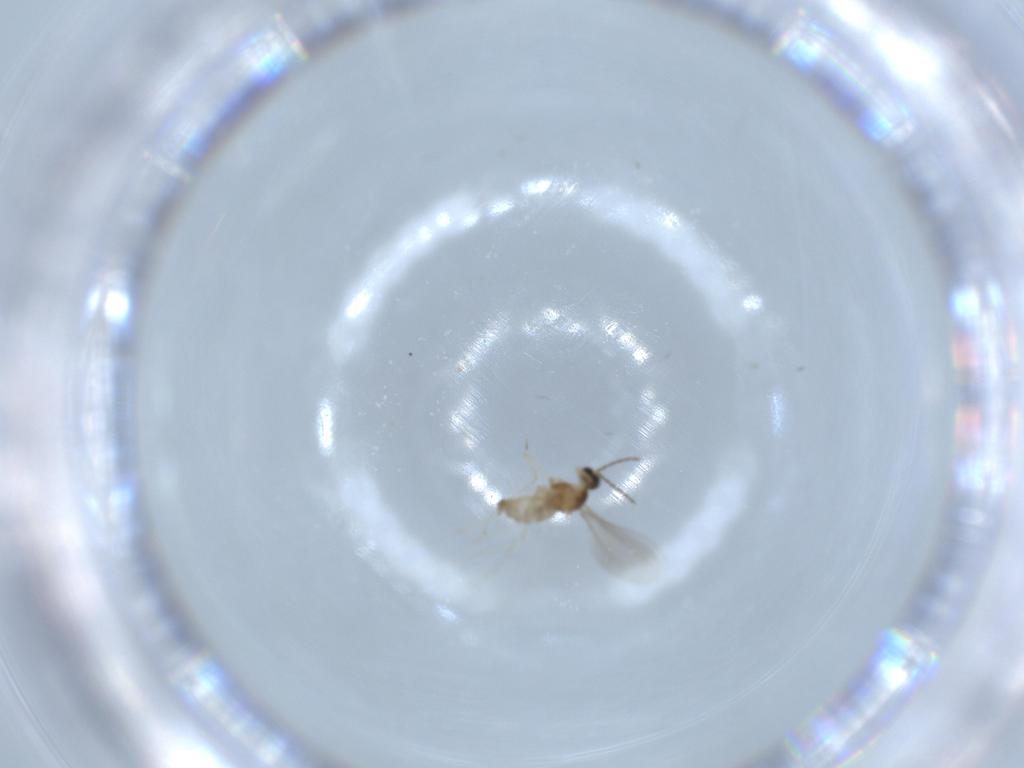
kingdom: Animalia
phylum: Arthropoda
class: Insecta
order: Diptera
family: Cecidomyiidae
